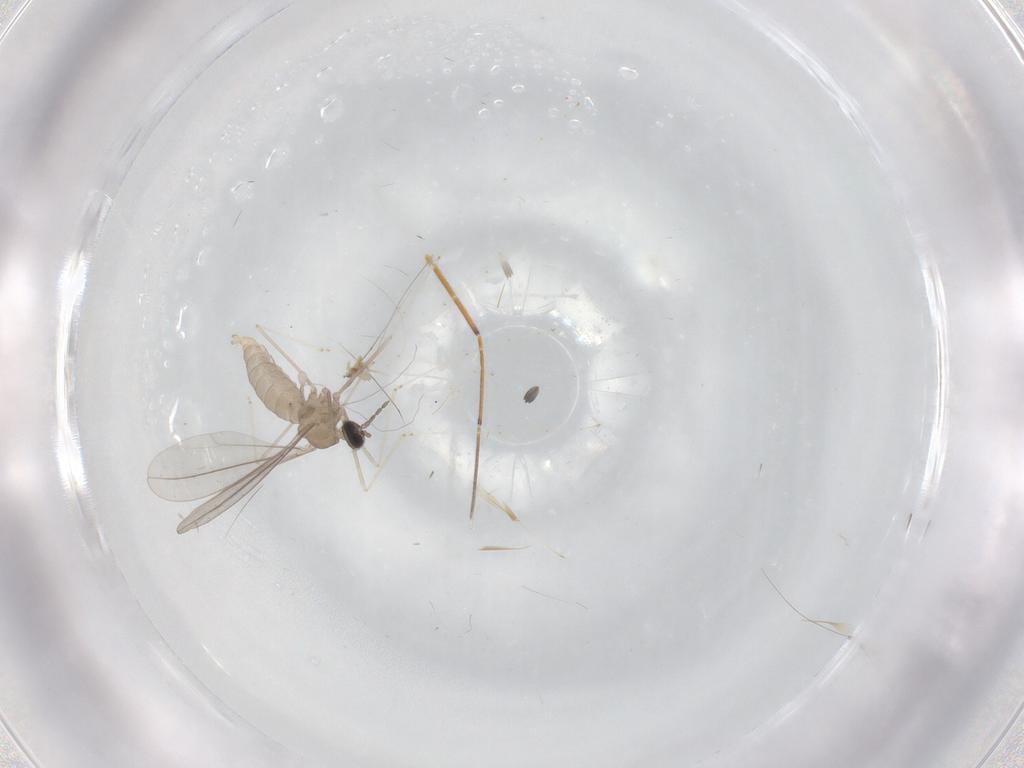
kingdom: Animalia
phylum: Arthropoda
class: Insecta
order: Diptera
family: Cecidomyiidae
